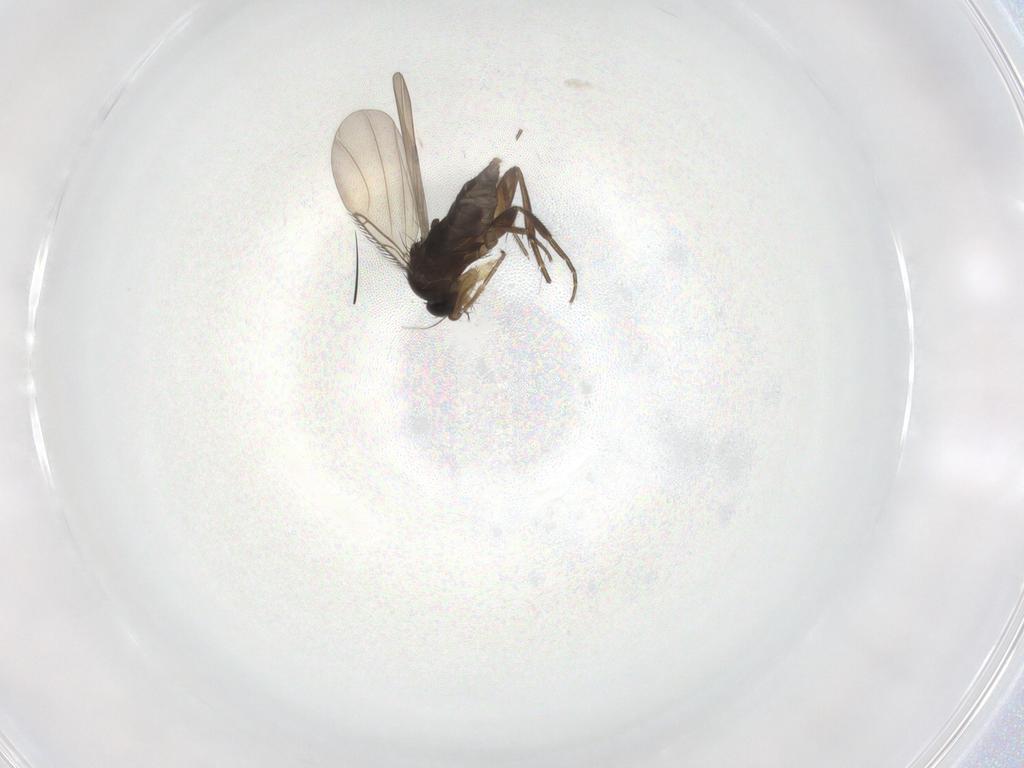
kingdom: Animalia
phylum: Arthropoda
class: Insecta
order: Diptera
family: Phoridae
